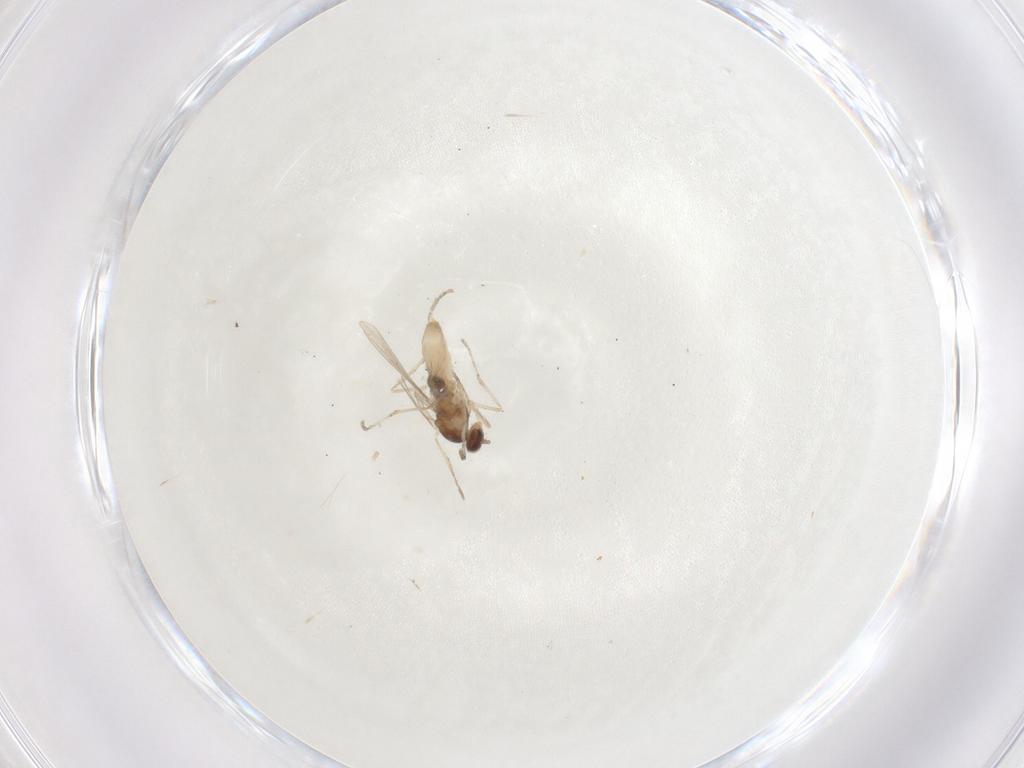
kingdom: Animalia
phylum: Arthropoda
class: Insecta
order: Diptera
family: Cecidomyiidae
